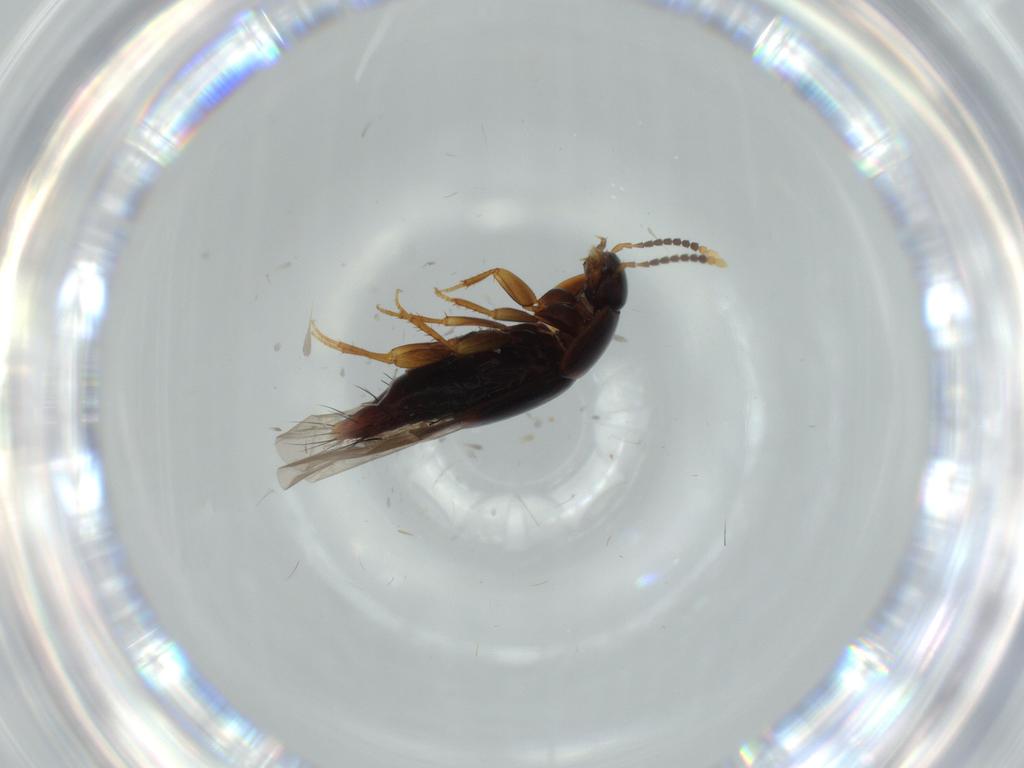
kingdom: Animalia
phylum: Arthropoda
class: Insecta
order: Coleoptera
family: Staphylinidae
